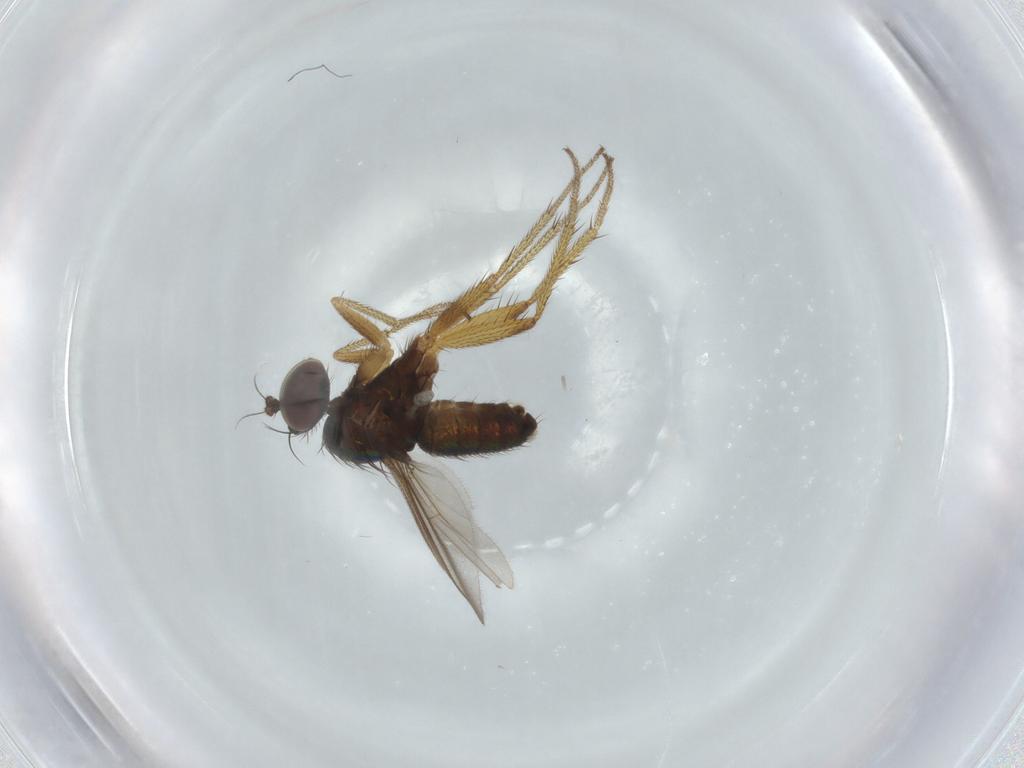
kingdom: Animalia
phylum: Arthropoda
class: Insecta
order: Diptera
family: Dolichopodidae
